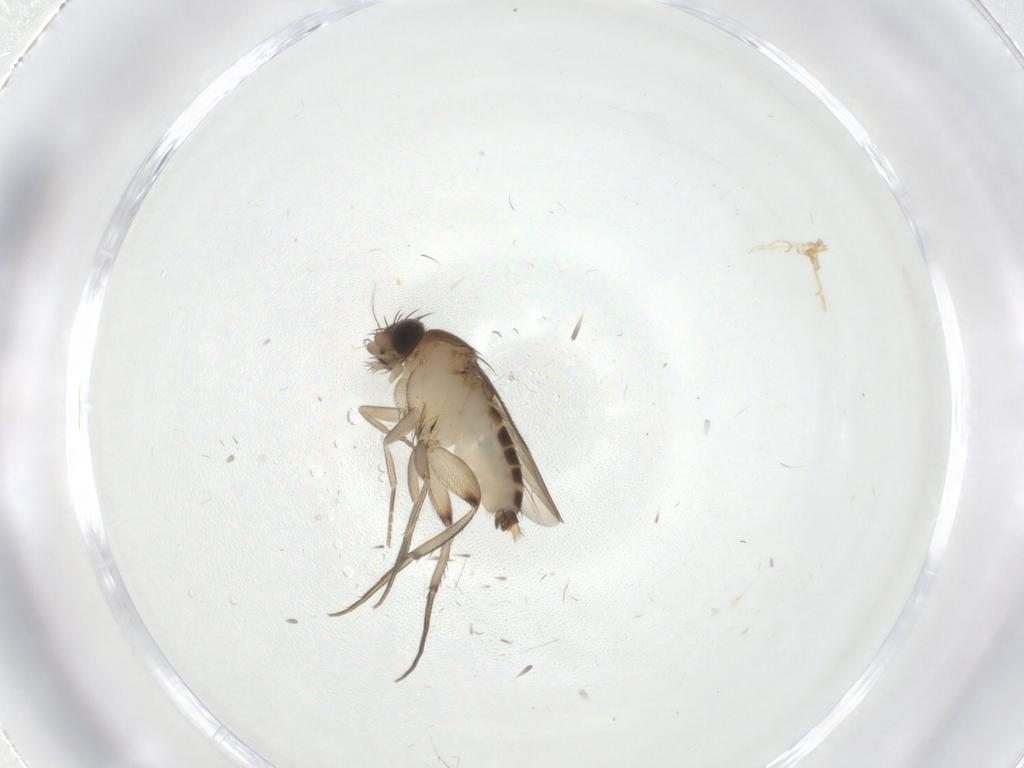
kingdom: Animalia
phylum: Arthropoda
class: Insecta
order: Diptera
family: Phoridae
